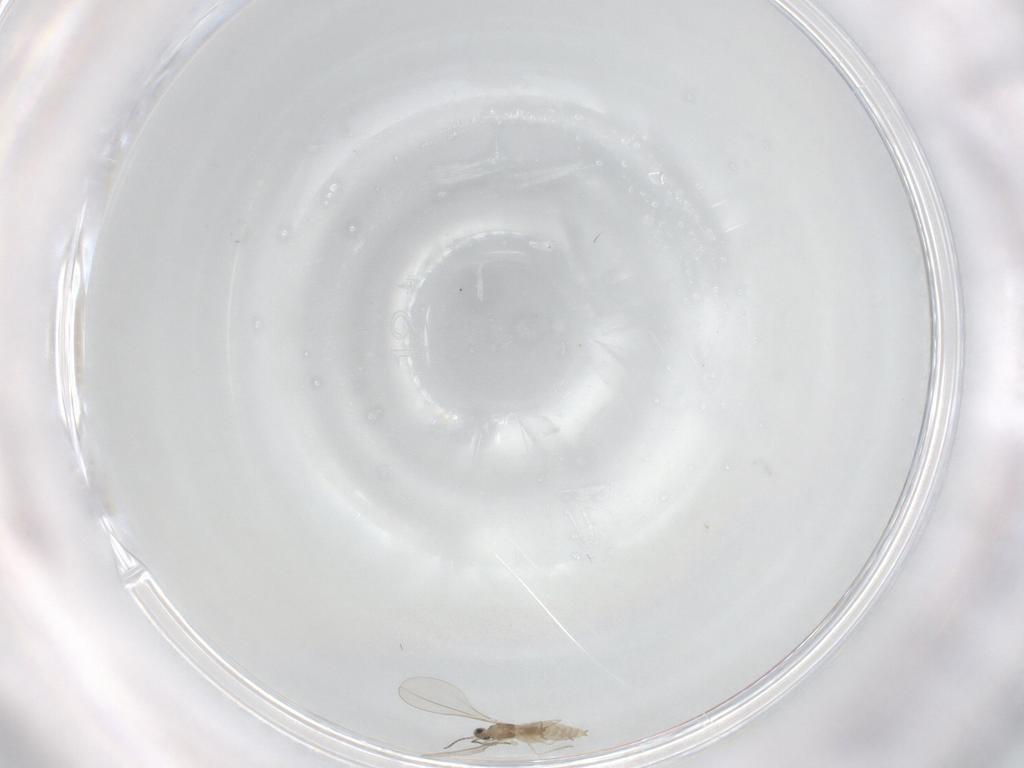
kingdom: Animalia
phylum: Arthropoda
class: Insecta
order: Diptera
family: Cecidomyiidae
